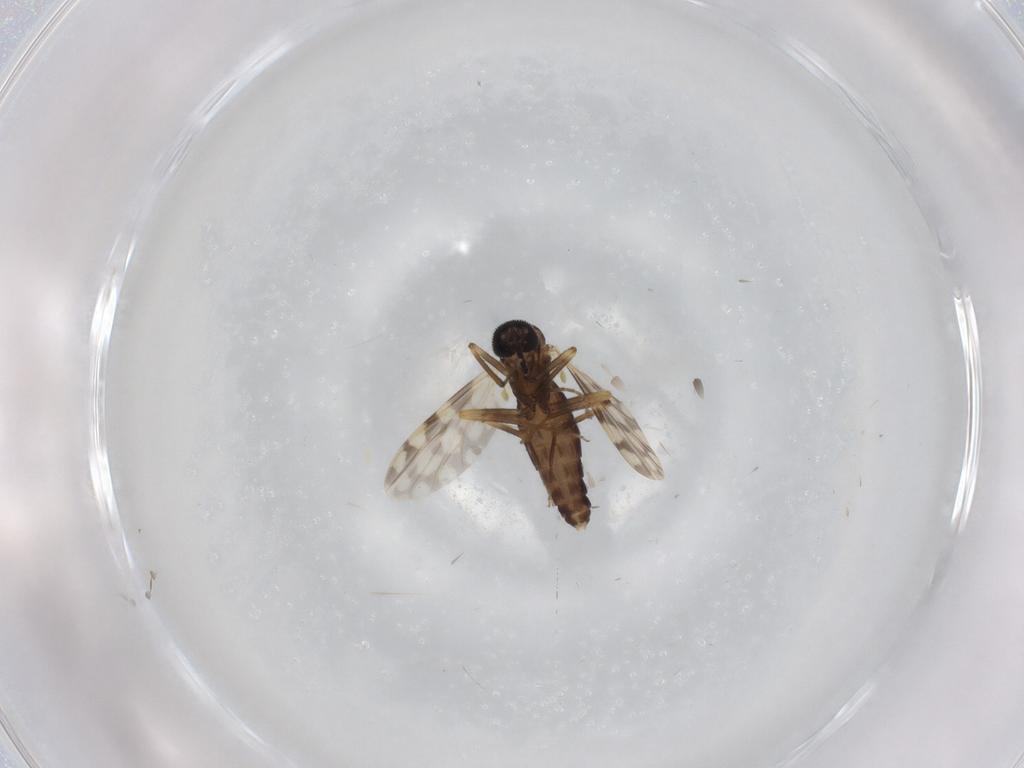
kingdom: Animalia
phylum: Arthropoda
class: Insecta
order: Diptera
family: Ceratopogonidae
